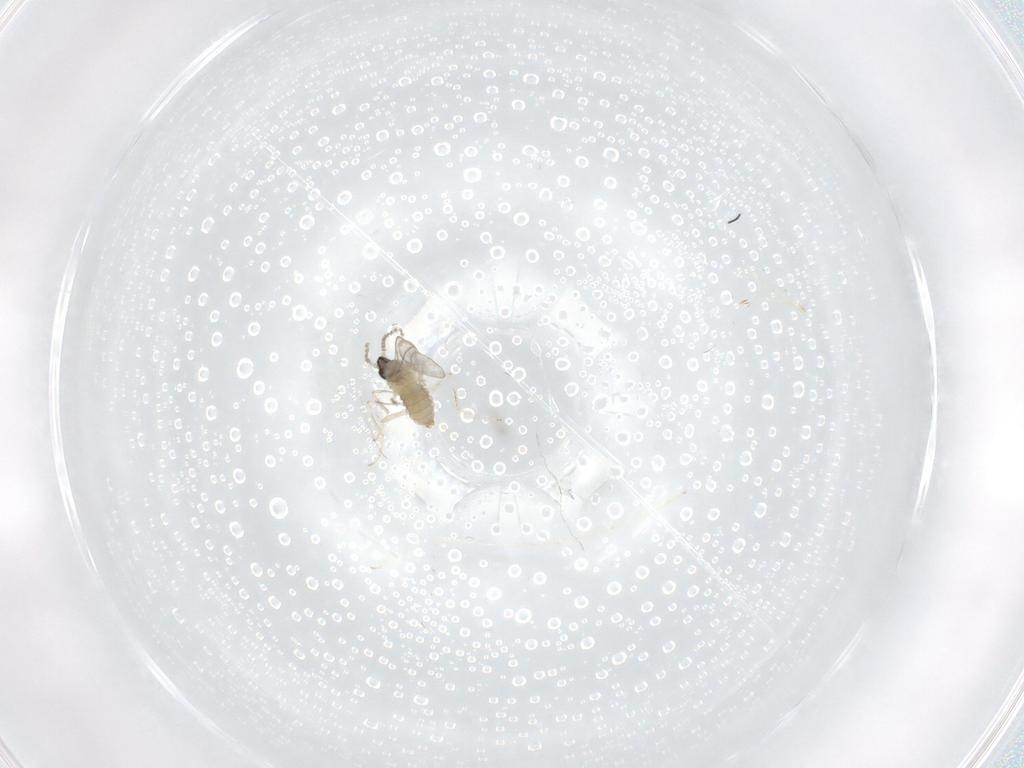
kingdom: Animalia
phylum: Arthropoda
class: Insecta
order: Diptera
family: Cecidomyiidae
